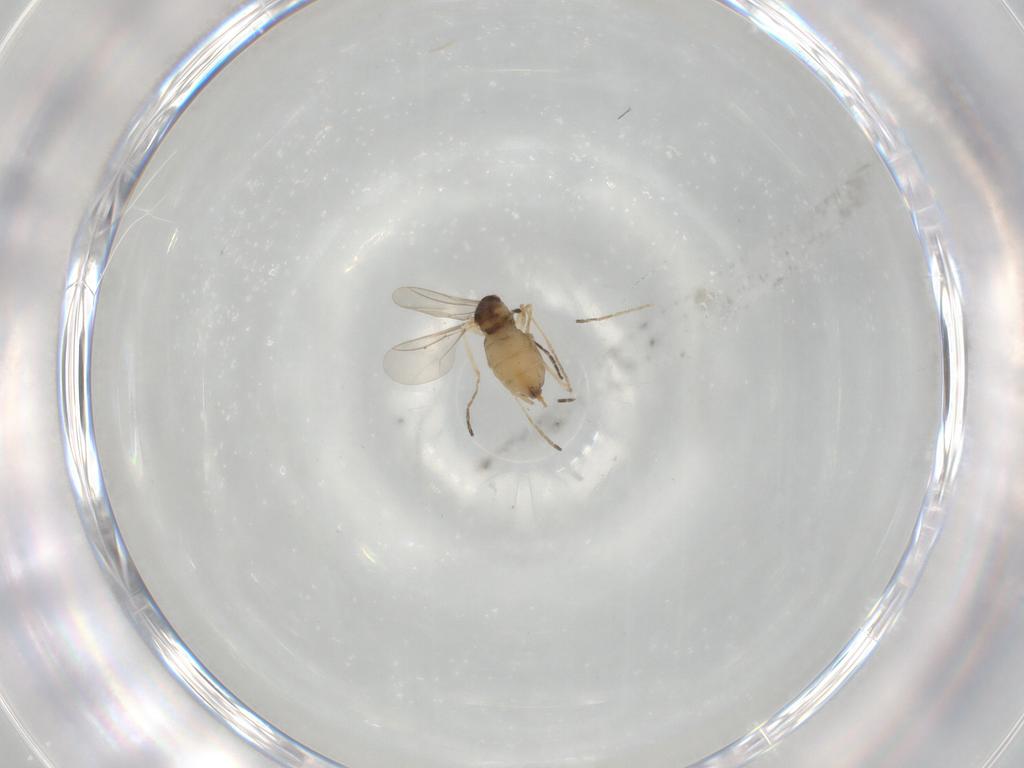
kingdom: Animalia
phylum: Arthropoda
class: Insecta
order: Diptera
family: Cecidomyiidae
